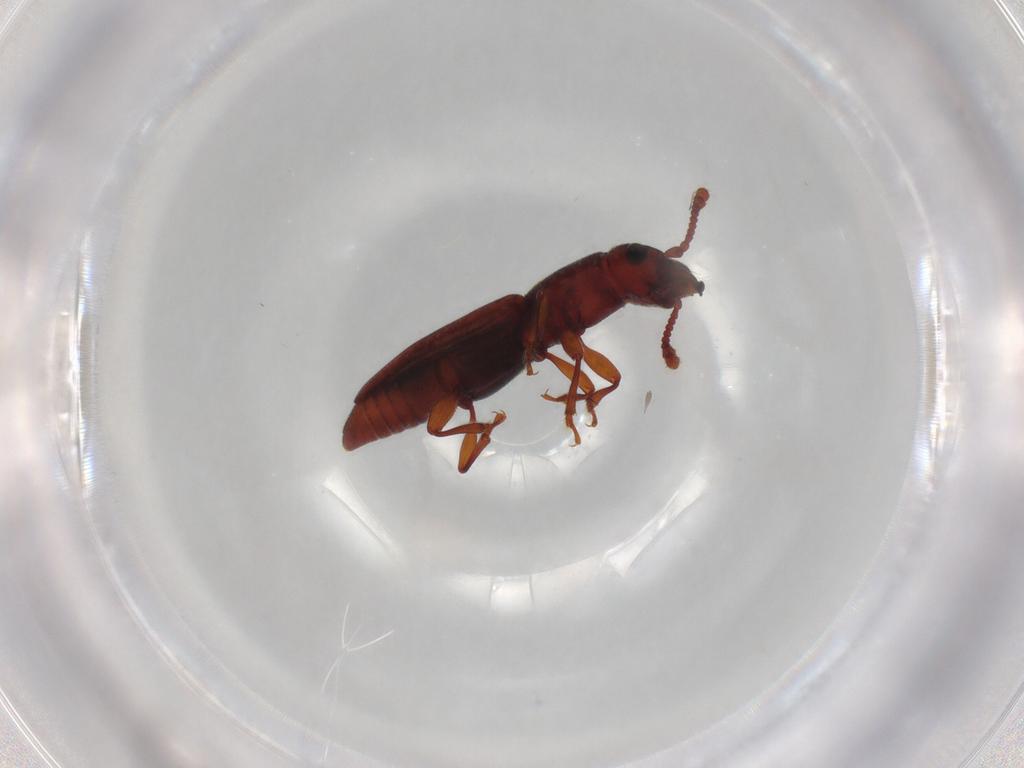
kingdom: Animalia
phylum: Arthropoda
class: Insecta
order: Coleoptera
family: Monotomidae
